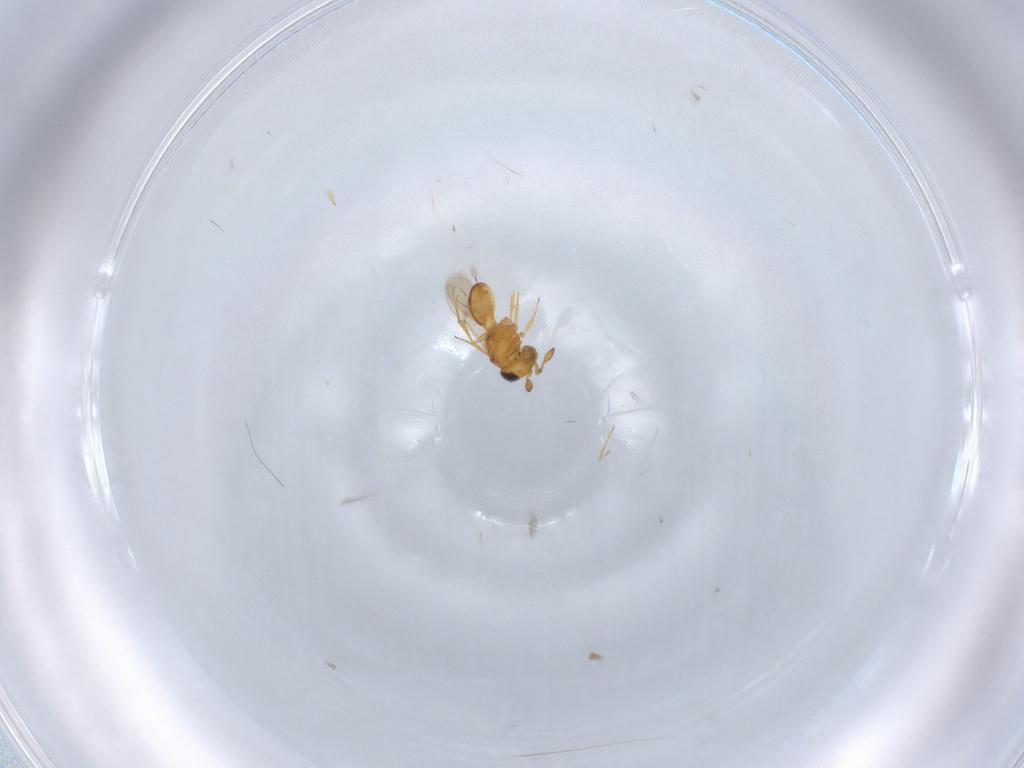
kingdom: Animalia
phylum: Arthropoda
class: Insecta
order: Hymenoptera
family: Scelionidae
